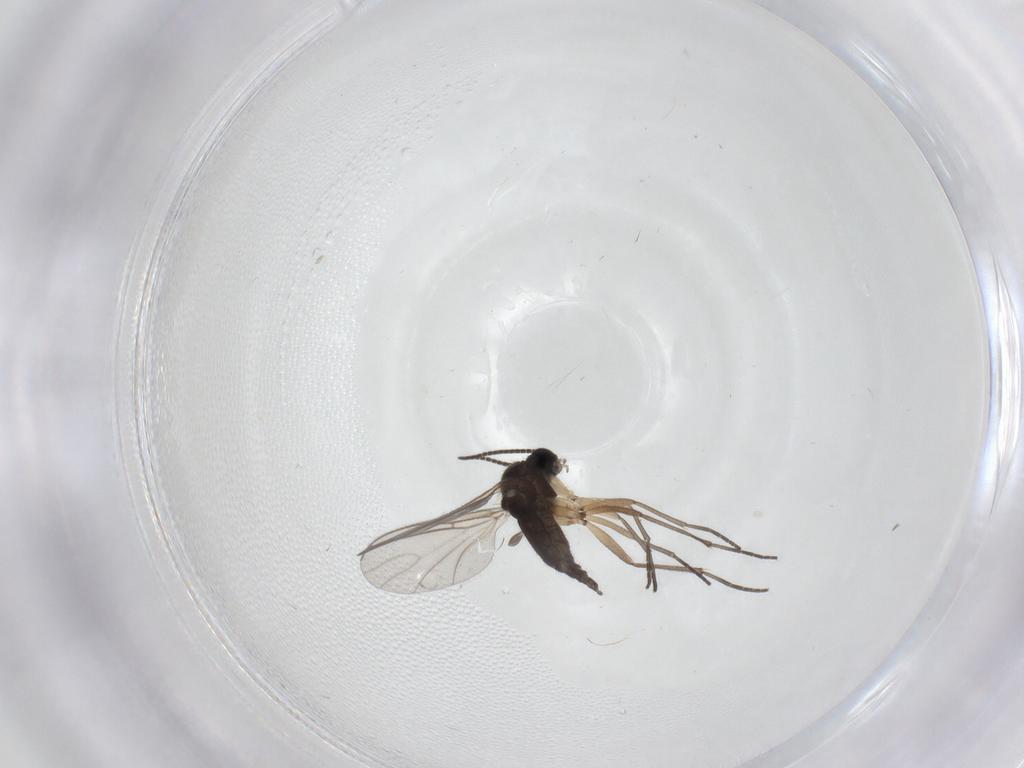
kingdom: Animalia
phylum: Arthropoda
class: Insecta
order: Diptera
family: Sciaridae
